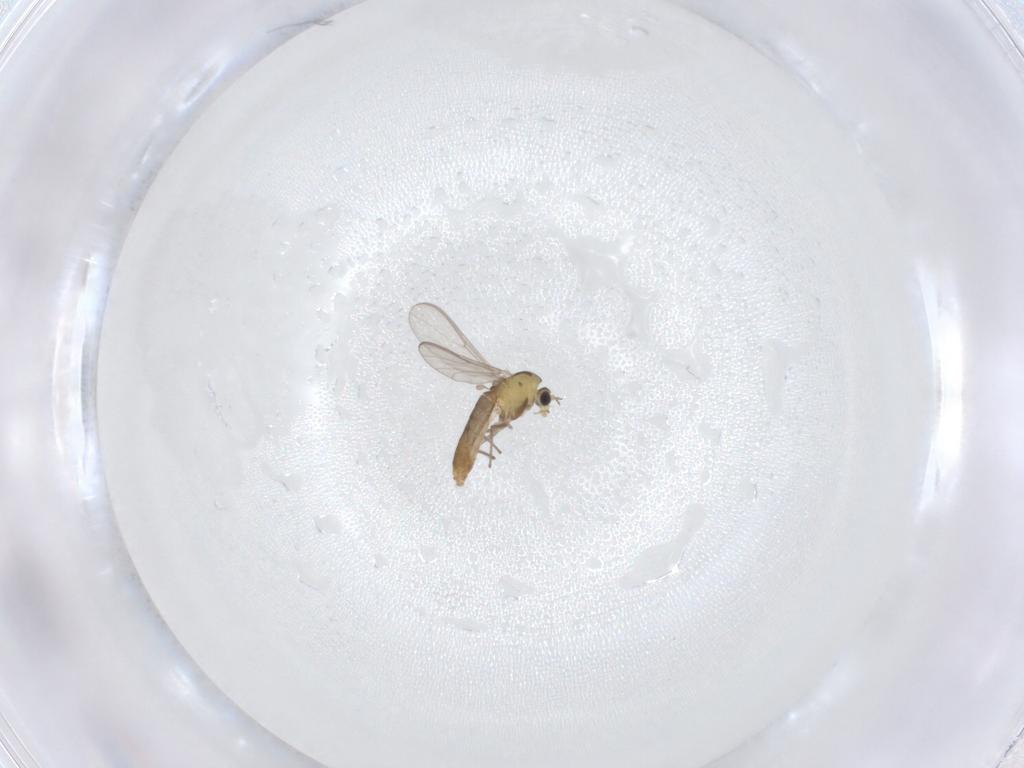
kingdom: Animalia
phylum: Arthropoda
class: Insecta
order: Diptera
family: Chironomidae
